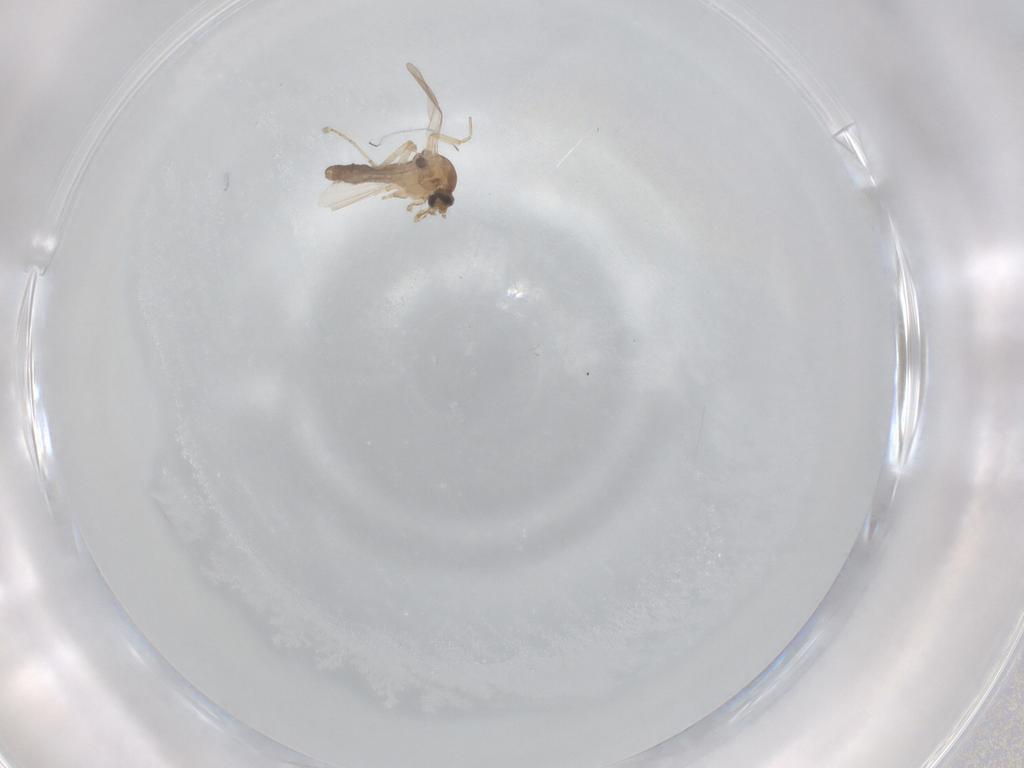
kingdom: Animalia
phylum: Arthropoda
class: Insecta
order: Diptera
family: Ceratopogonidae
